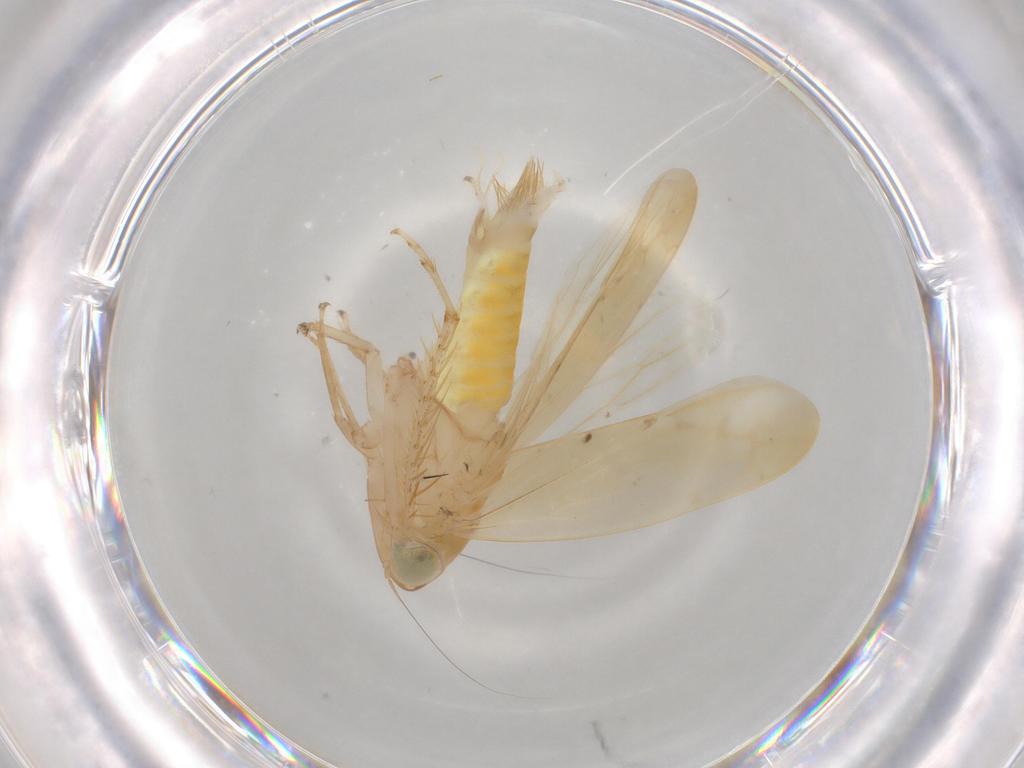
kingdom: Animalia
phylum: Arthropoda
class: Insecta
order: Hemiptera
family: Cicadellidae
